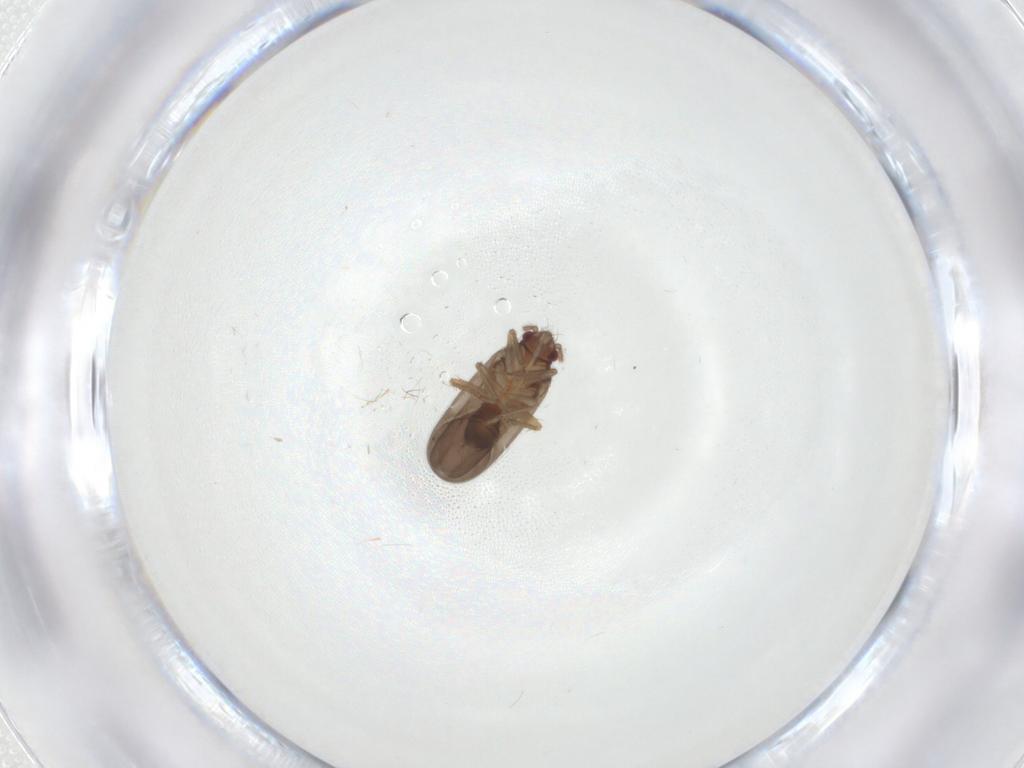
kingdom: Animalia
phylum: Arthropoda
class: Insecta
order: Hemiptera
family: Ceratocombidae
